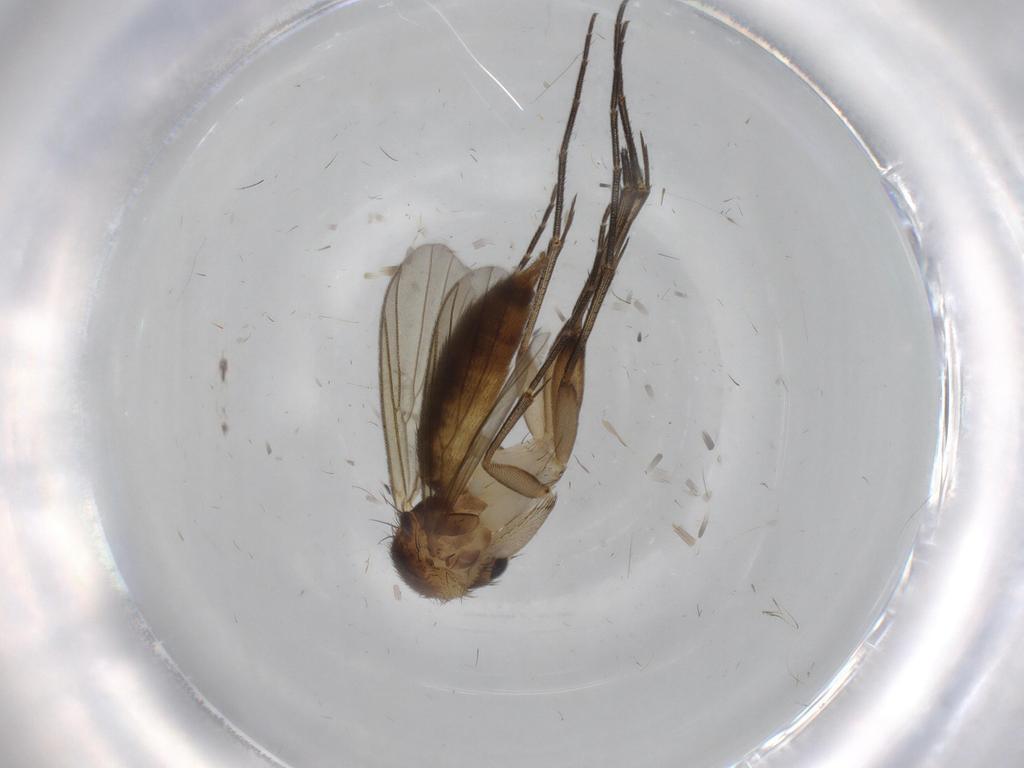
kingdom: Animalia
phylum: Arthropoda
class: Insecta
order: Diptera
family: Mycetophilidae
